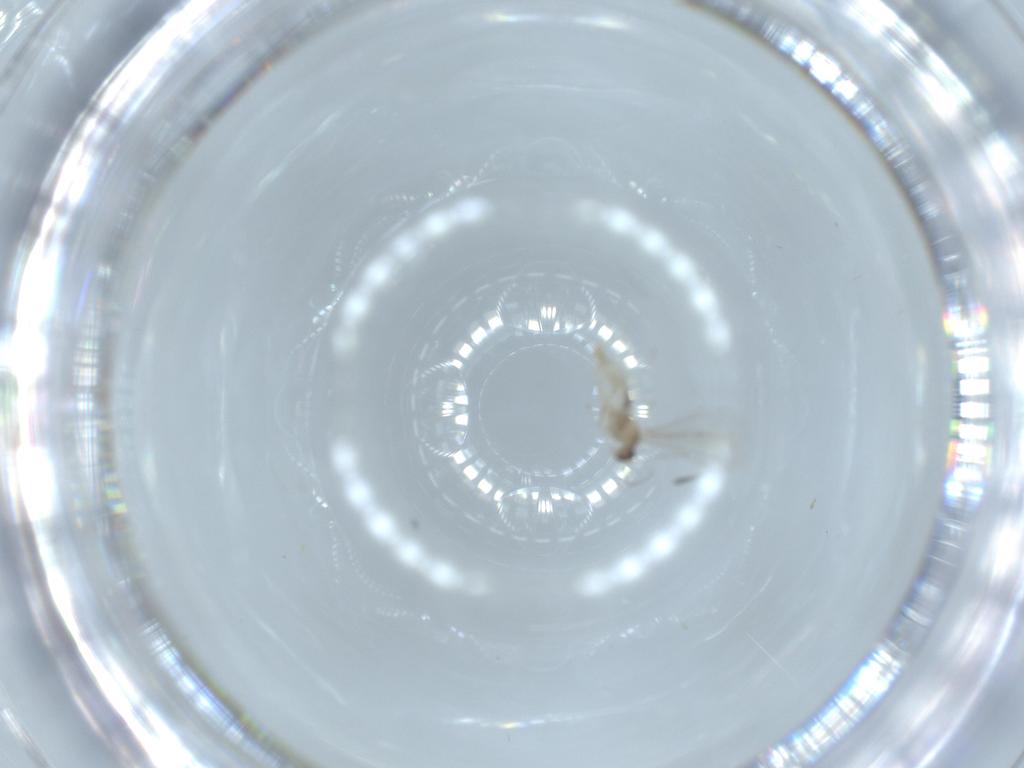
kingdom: Animalia
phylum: Arthropoda
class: Insecta
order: Diptera
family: Cecidomyiidae
